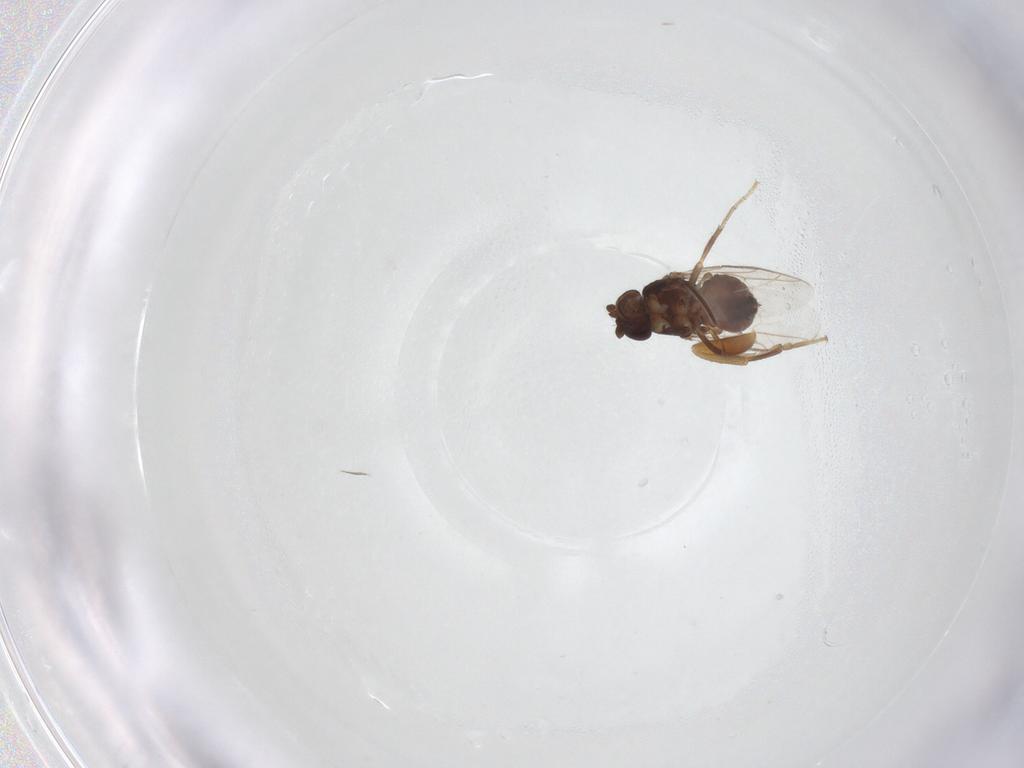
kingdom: Animalia
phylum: Arthropoda
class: Insecta
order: Diptera
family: Sphaeroceridae
